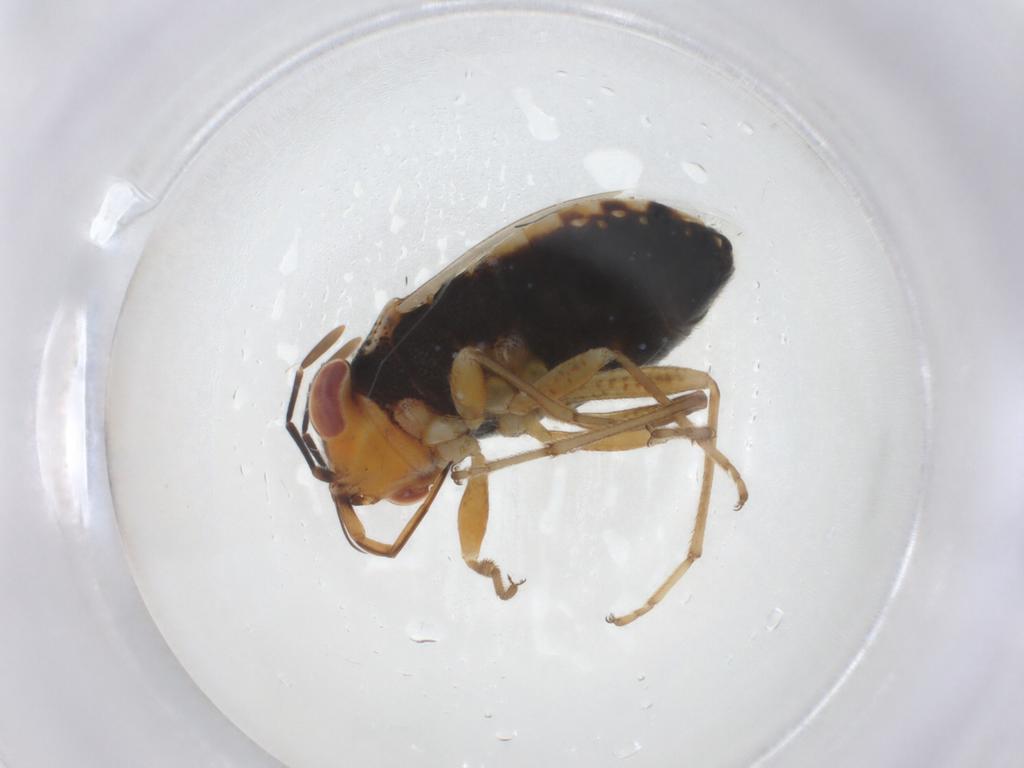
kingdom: Animalia
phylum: Arthropoda
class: Insecta
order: Hemiptera
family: Geocoridae
